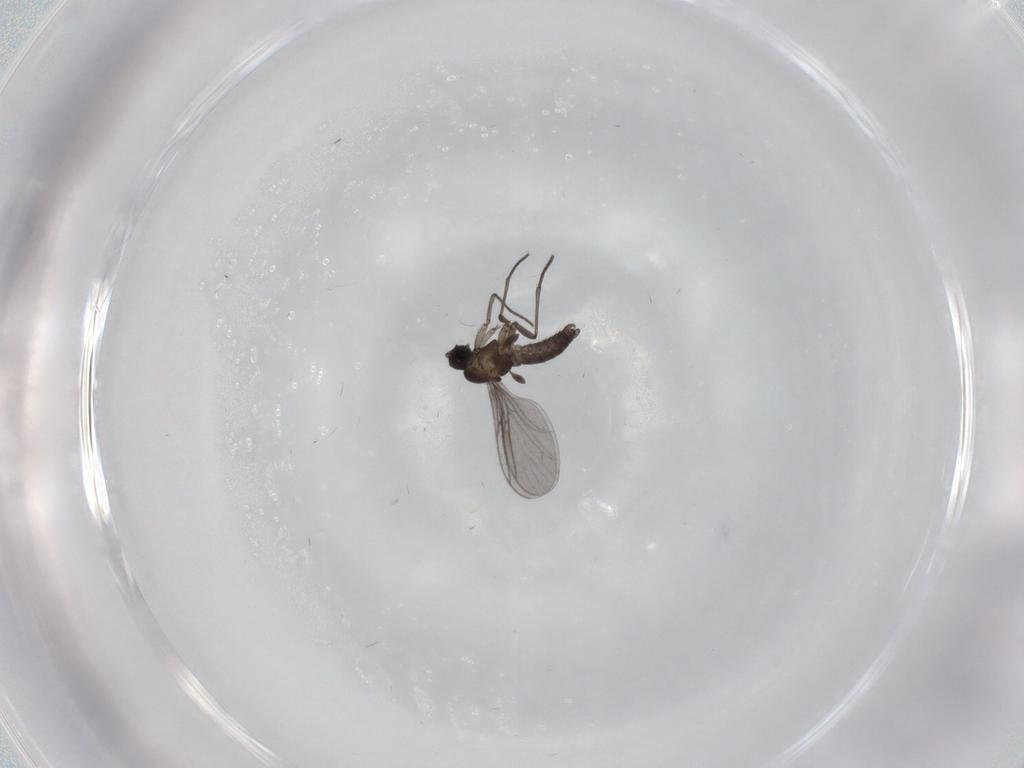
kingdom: Animalia
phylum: Arthropoda
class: Insecta
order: Diptera
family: Sciaridae
